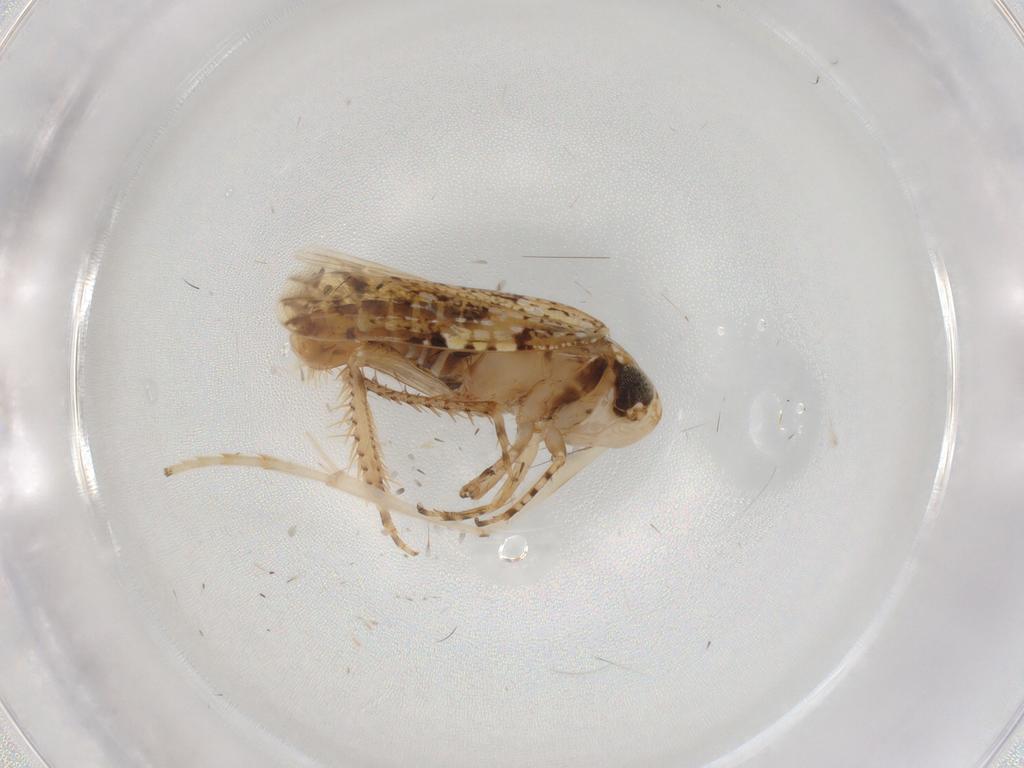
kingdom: Animalia
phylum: Arthropoda
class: Insecta
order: Hemiptera
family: Cicadellidae
